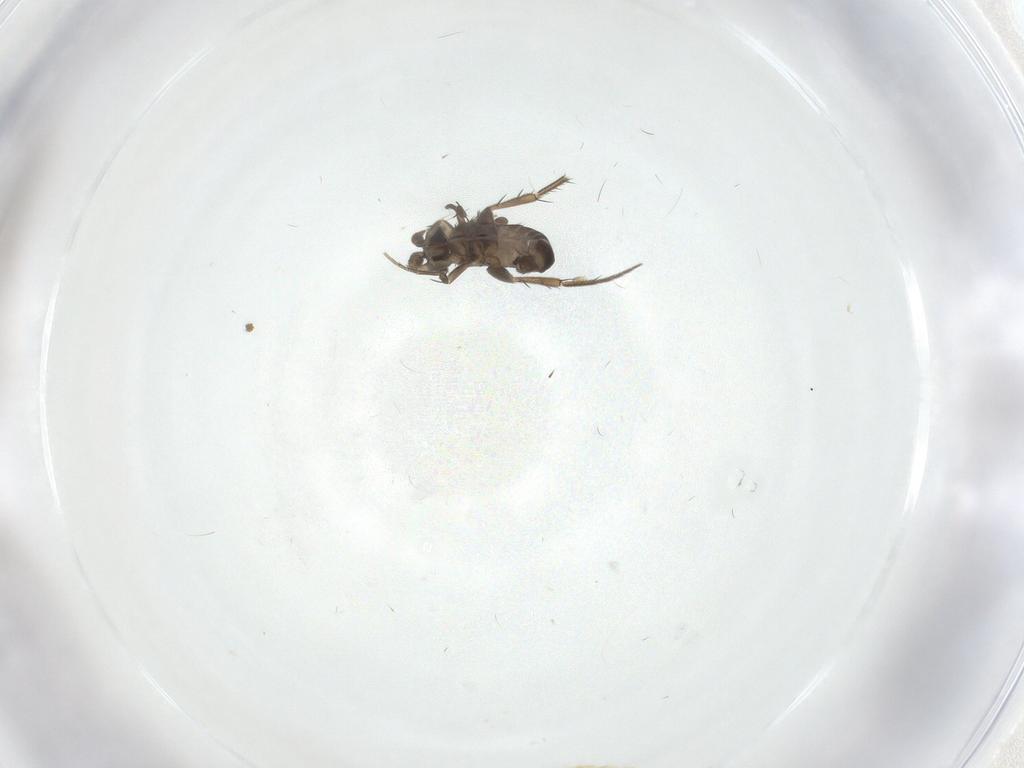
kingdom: Animalia
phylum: Arthropoda
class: Insecta
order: Diptera
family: Phoridae
